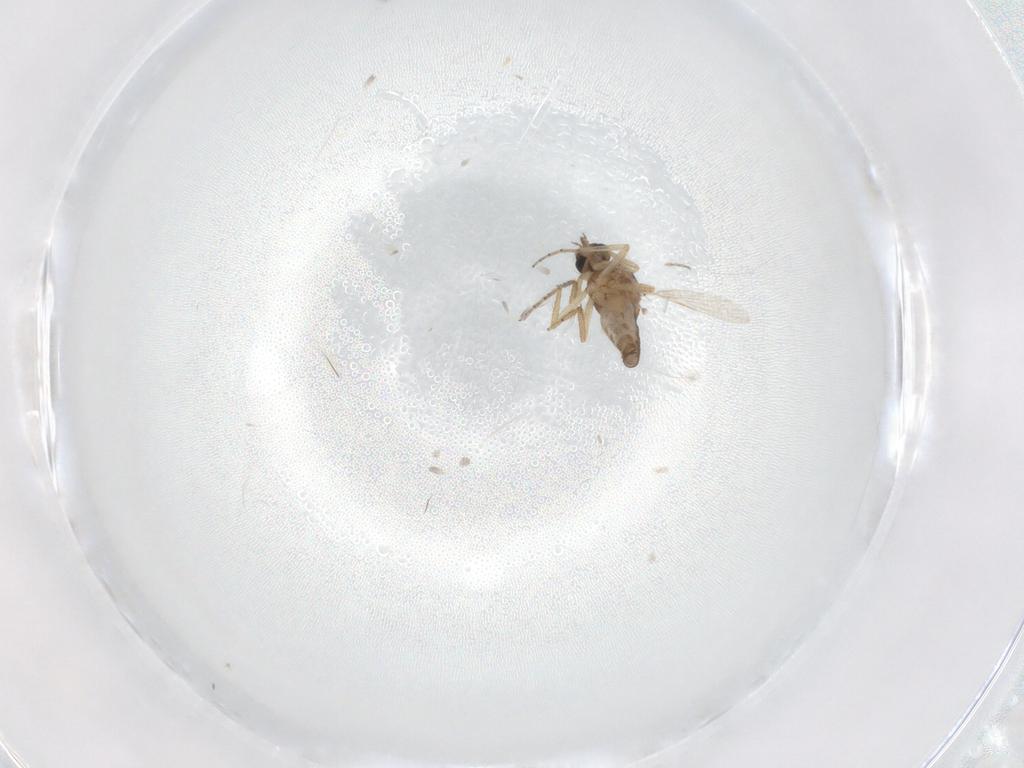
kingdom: Animalia
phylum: Arthropoda
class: Insecta
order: Diptera
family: Ceratopogonidae
